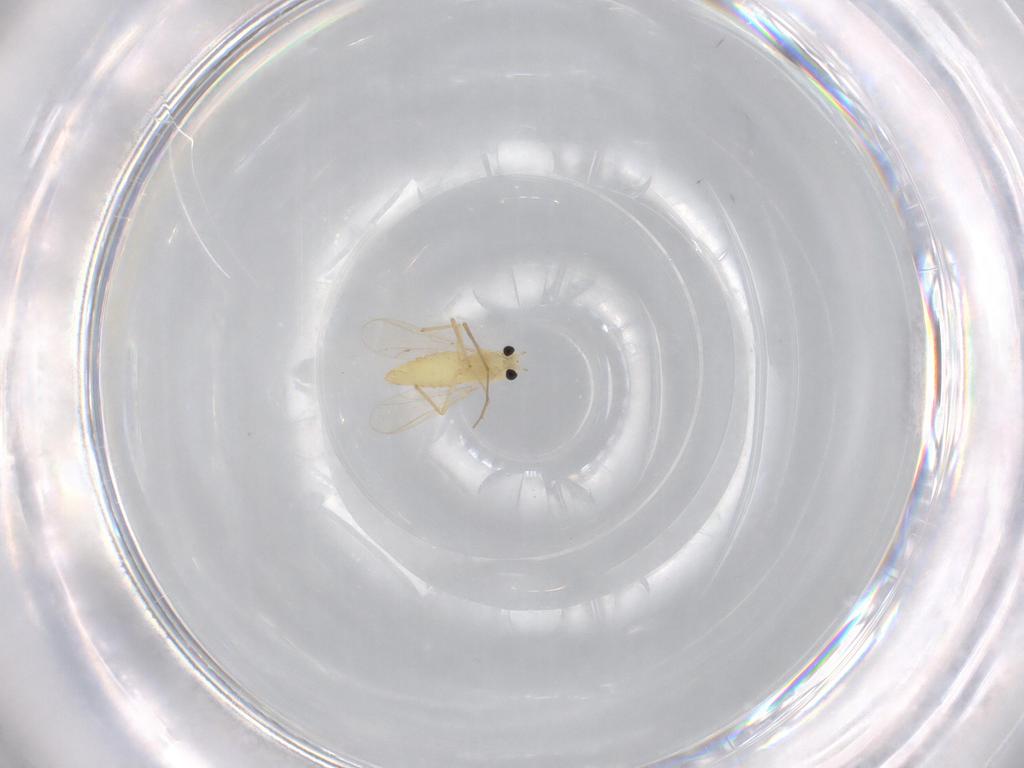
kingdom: Animalia
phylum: Arthropoda
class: Insecta
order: Diptera
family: Chironomidae
